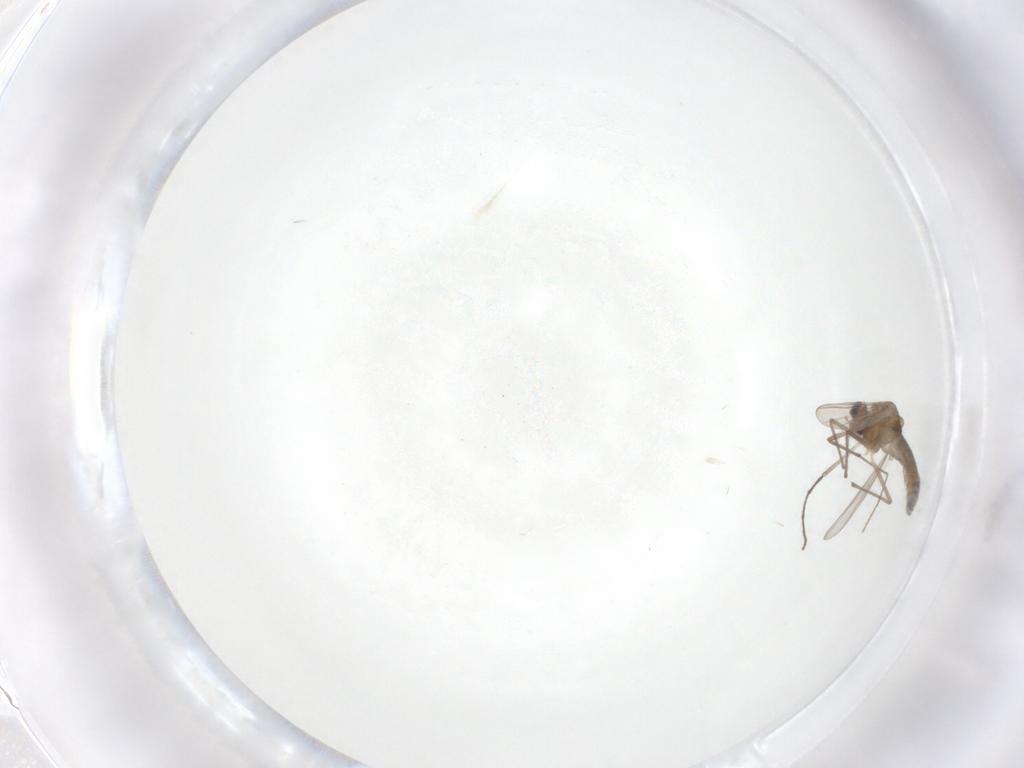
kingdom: Animalia
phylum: Arthropoda
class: Insecta
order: Diptera
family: Chironomidae
